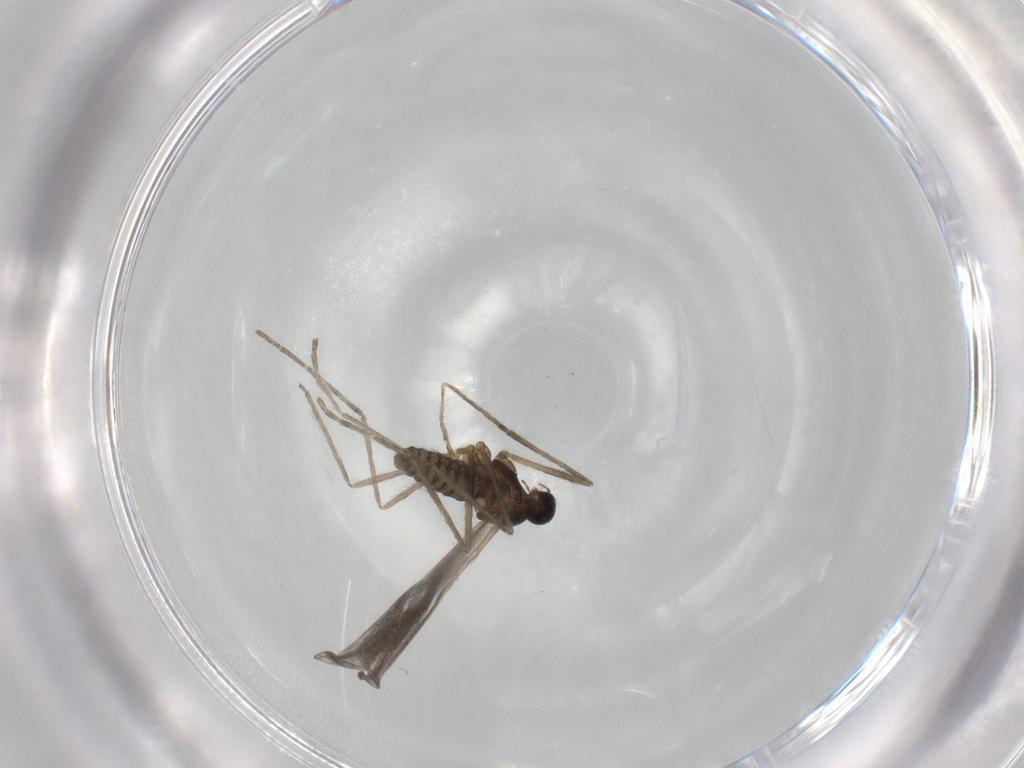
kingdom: Animalia
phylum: Arthropoda
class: Insecta
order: Diptera
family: Cecidomyiidae
